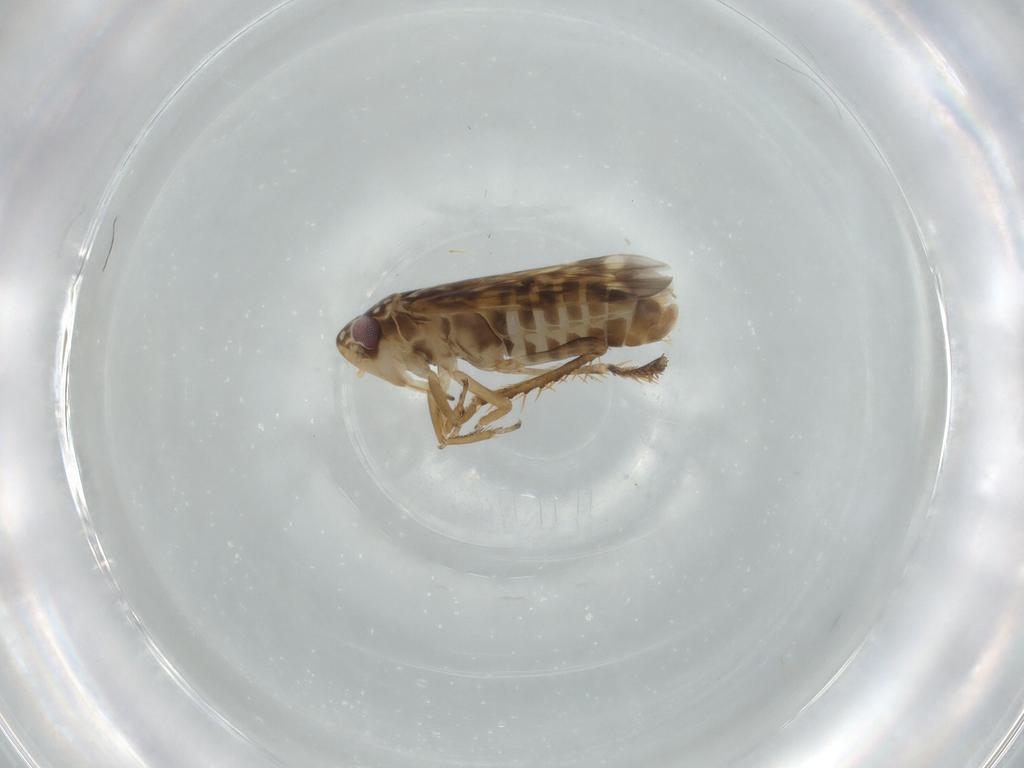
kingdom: Animalia
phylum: Arthropoda
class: Insecta
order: Hemiptera
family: Cicadellidae
